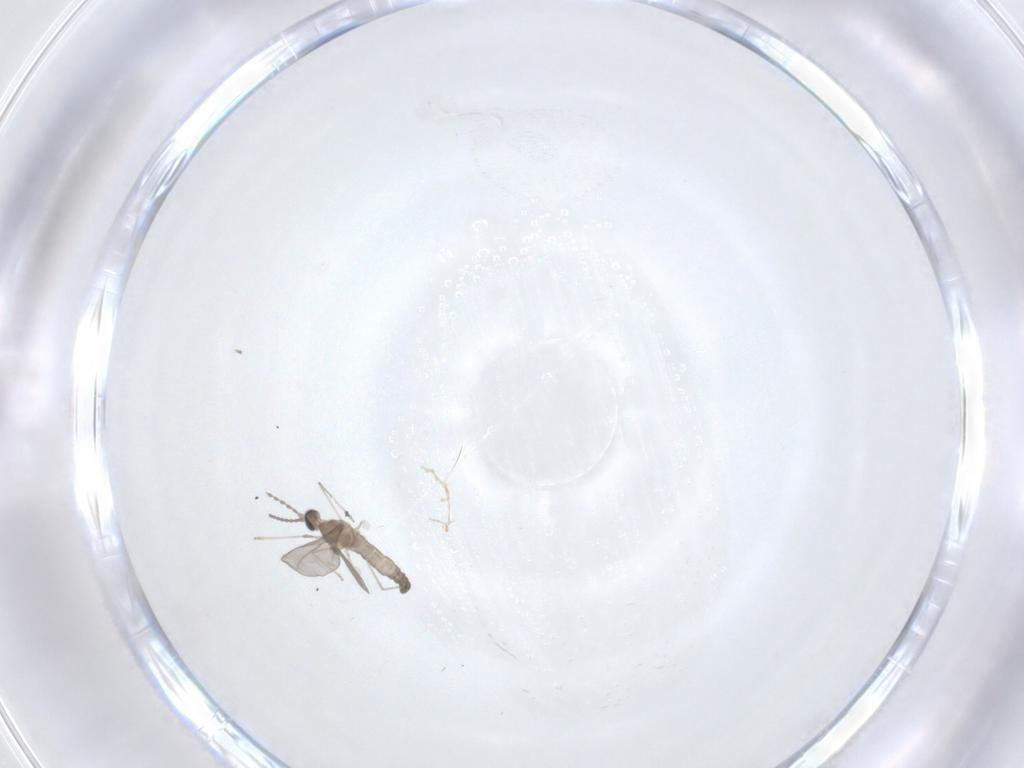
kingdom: Animalia
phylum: Arthropoda
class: Insecta
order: Diptera
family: Cecidomyiidae
